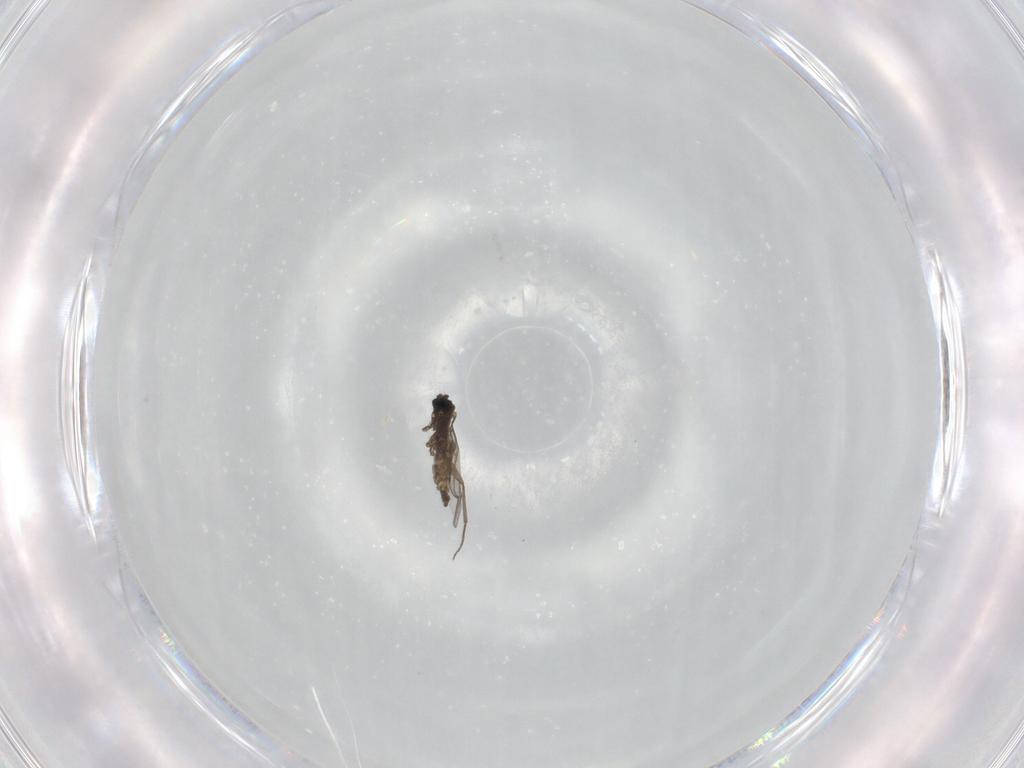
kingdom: Animalia
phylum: Arthropoda
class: Insecta
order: Diptera
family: Sciaridae
